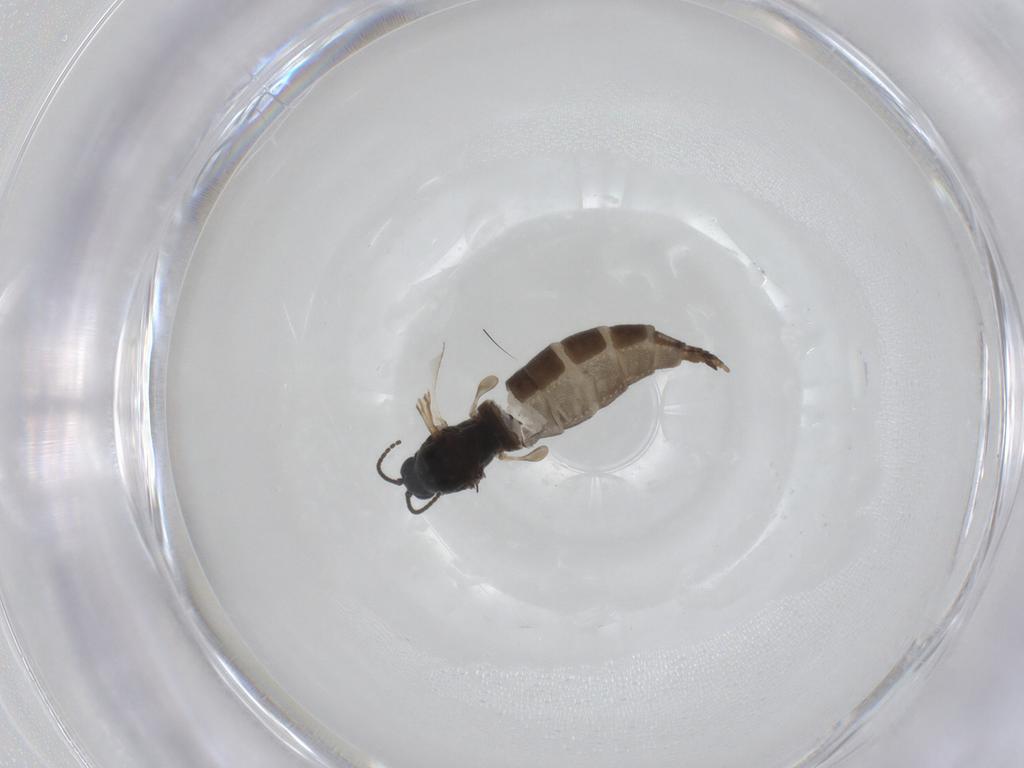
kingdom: Animalia
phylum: Arthropoda
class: Insecta
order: Diptera
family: Sciaridae
